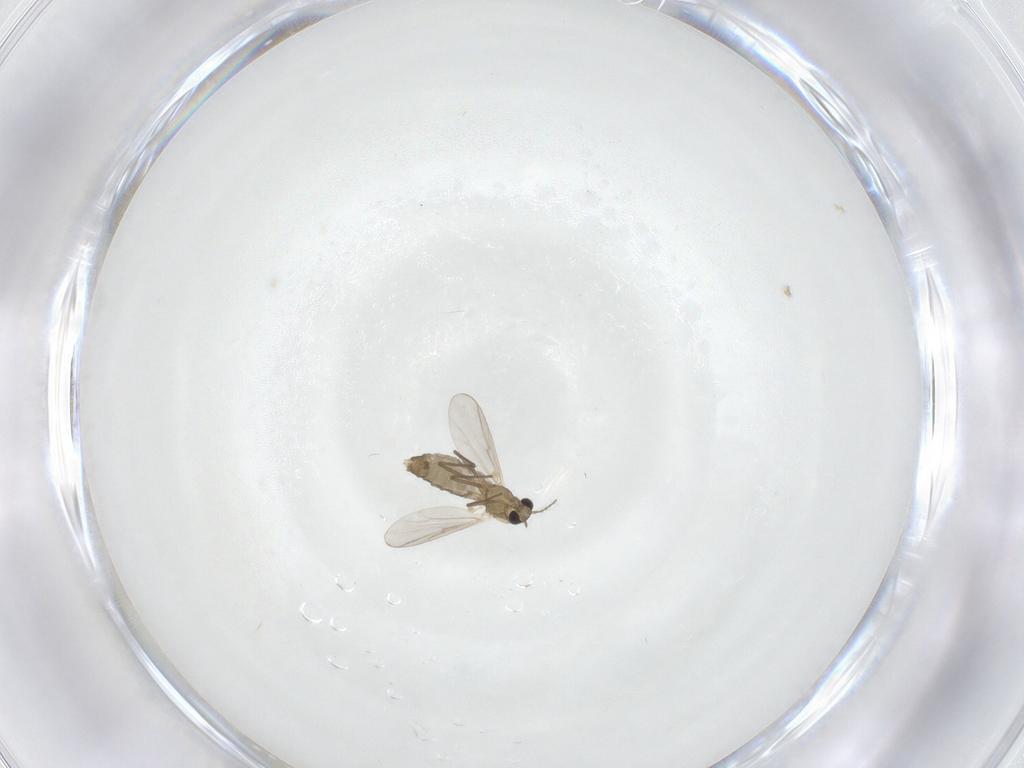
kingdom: Animalia
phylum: Arthropoda
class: Insecta
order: Diptera
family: Chironomidae
